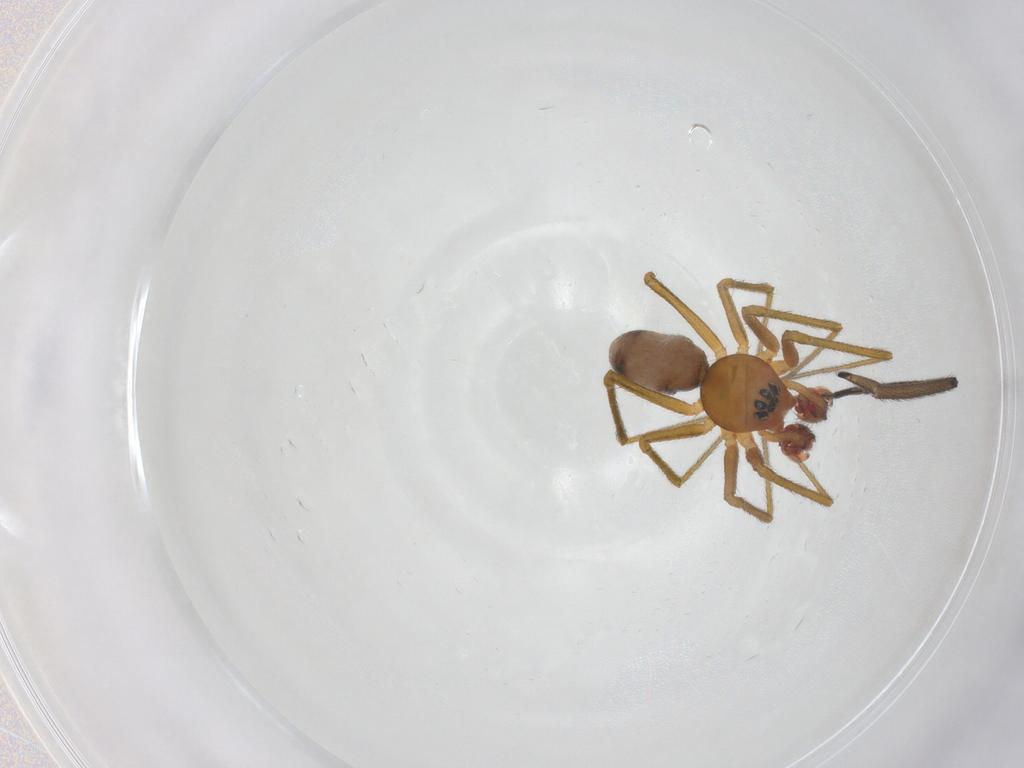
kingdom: Animalia
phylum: Arthropoda
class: Arachnida
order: Araneae
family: Linyphiidae
